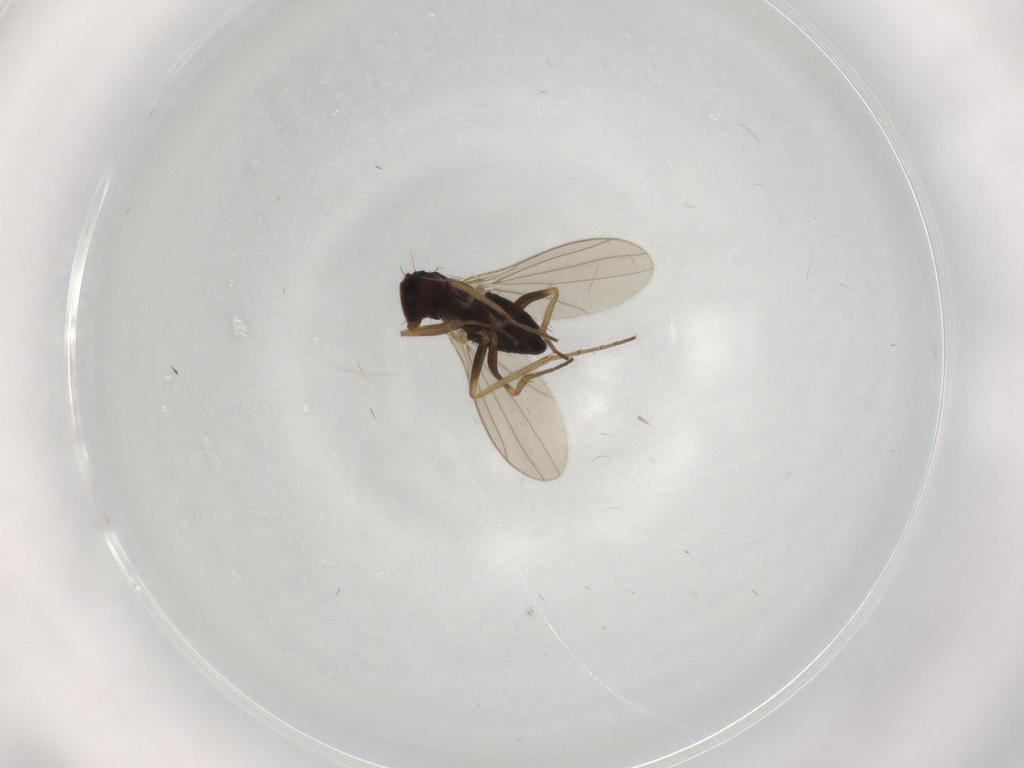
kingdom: Animalia
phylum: Arthropoda
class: Insecta
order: Diptera
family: Dolichopodidae
